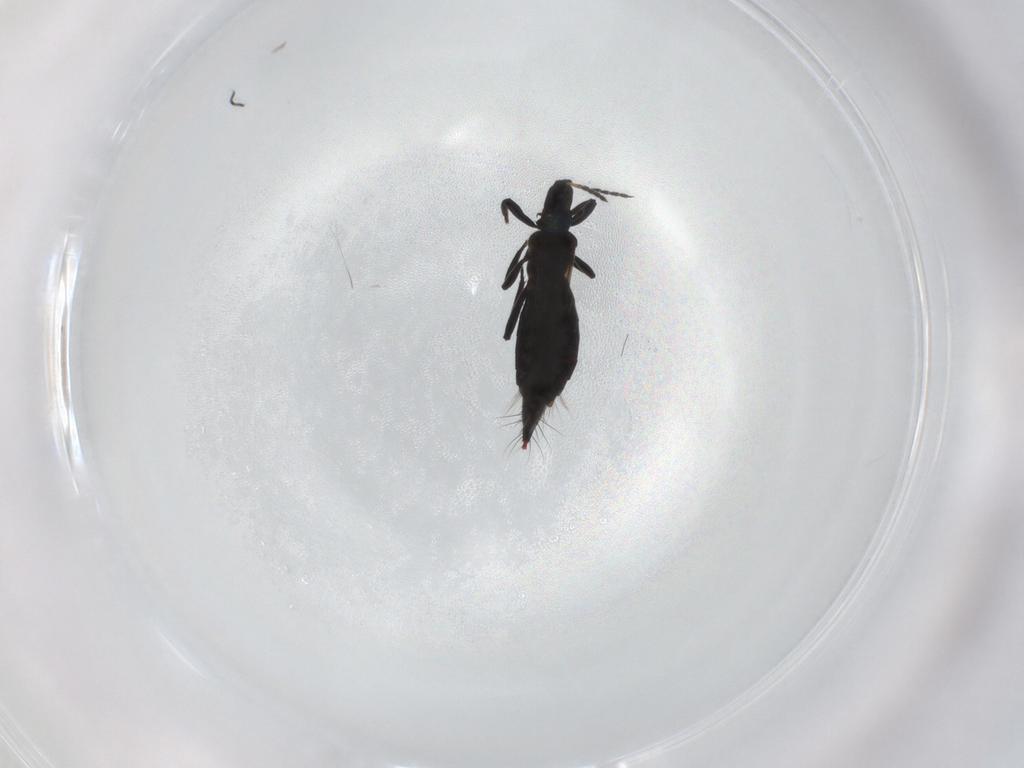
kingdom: Animalia
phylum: Arthropoda
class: Insecta
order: Thysanoptera
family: Aeolothripidae
